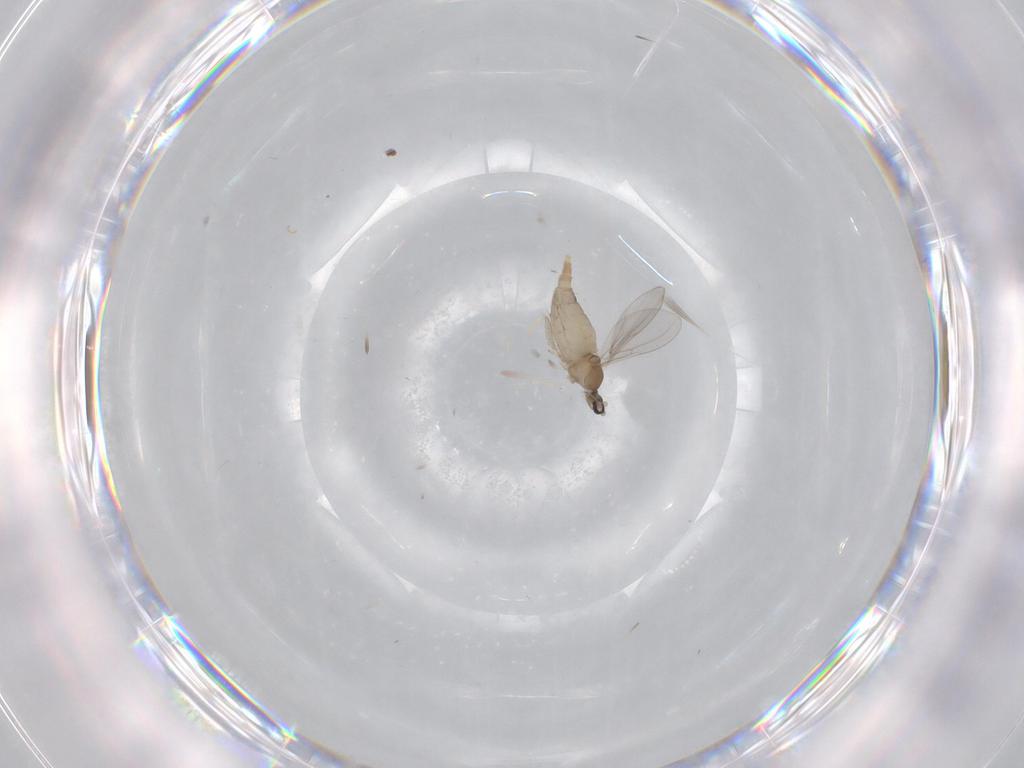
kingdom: Animalia
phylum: Arthropoda
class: Insecta
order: Diptera
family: Cecidomyiidae
